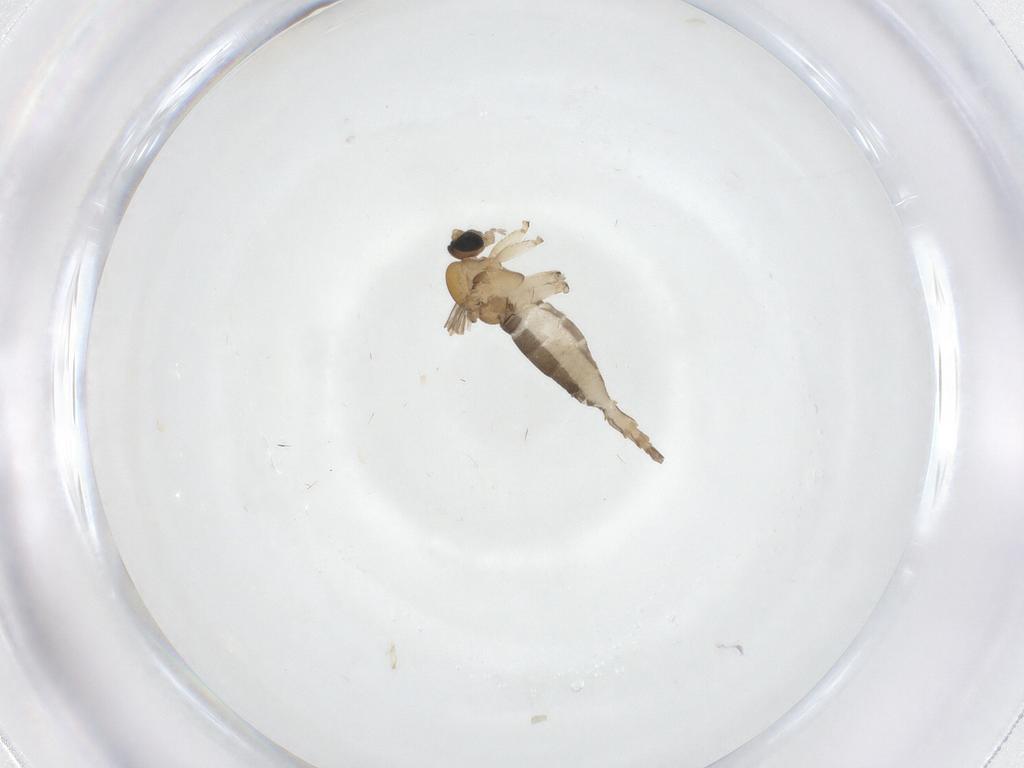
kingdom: Animalia
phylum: Arthropoda
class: Insecta
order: Diptera
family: Sciaridae
